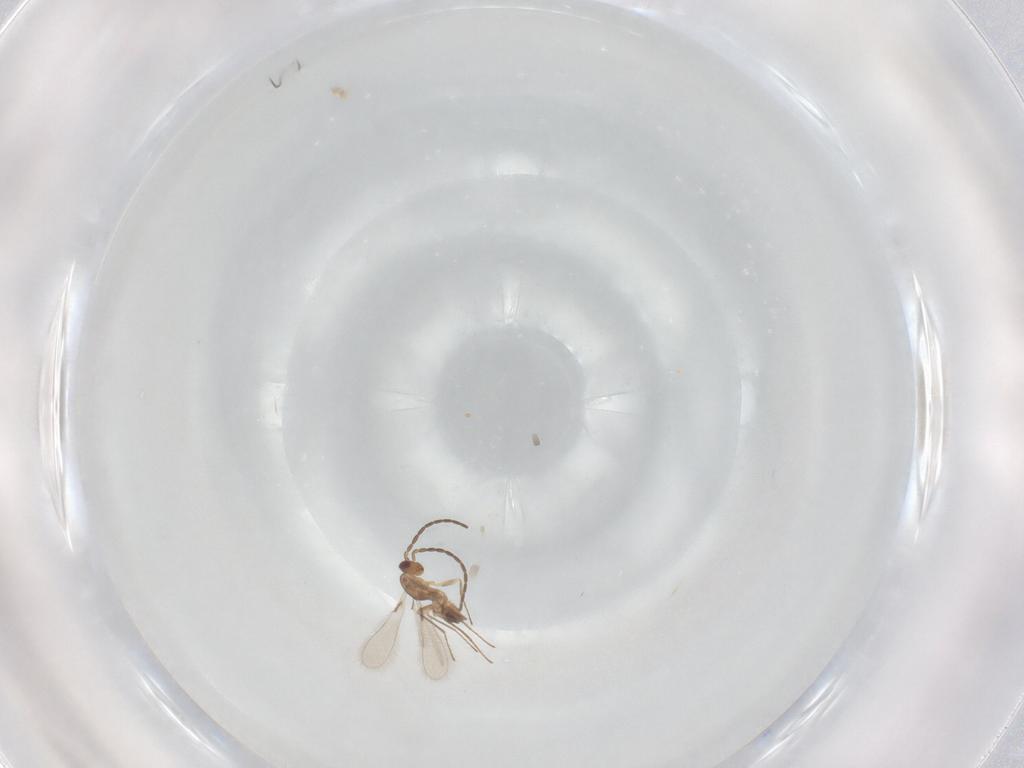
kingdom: Animalia
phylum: Arthropoda
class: Insecta
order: Hymenoptera
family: Mymaridae
